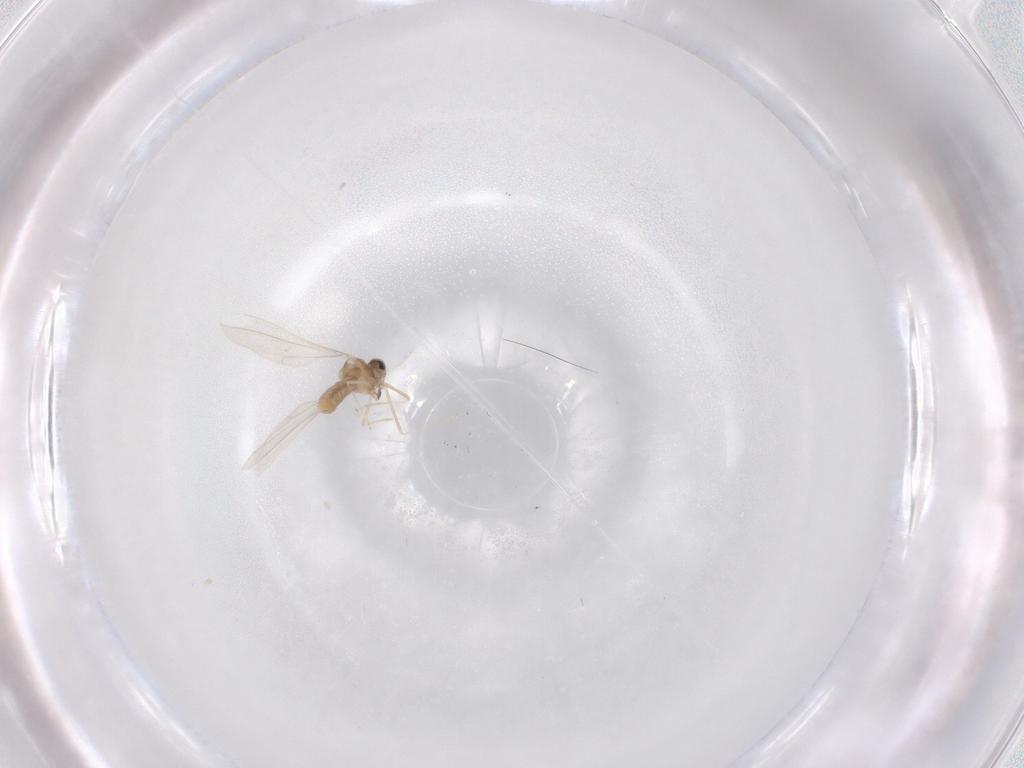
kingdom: Animalia
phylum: Arthropoda
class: Insecta
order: Diptera
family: Cecidomyiidae
